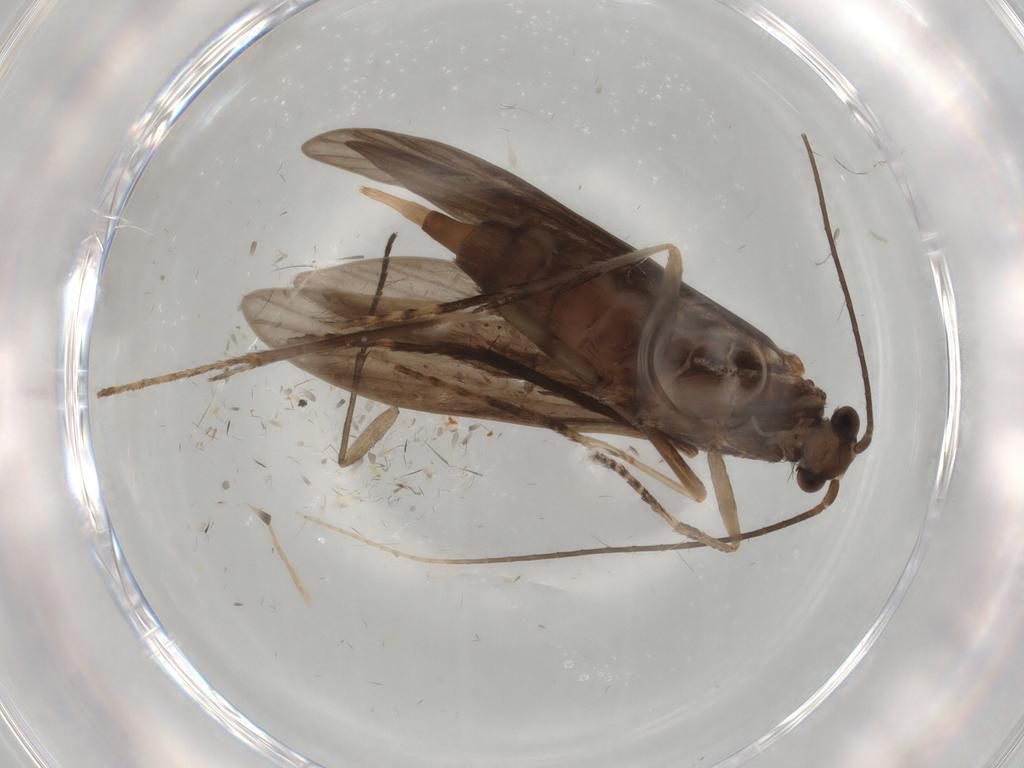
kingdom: Animalia
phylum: Arthropoda
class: Insecta
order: Trichoptera
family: Xiphocentronidae
